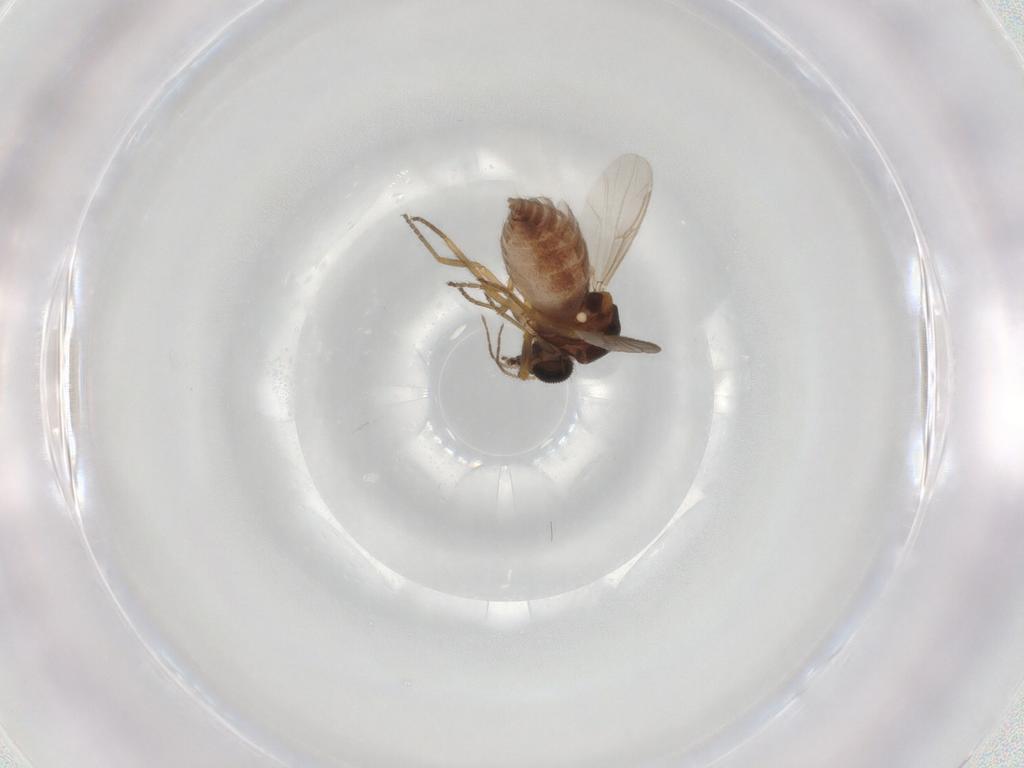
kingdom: Animalia
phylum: Arthropoda
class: Insecta
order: Diptera
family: Ceratopogonidae
